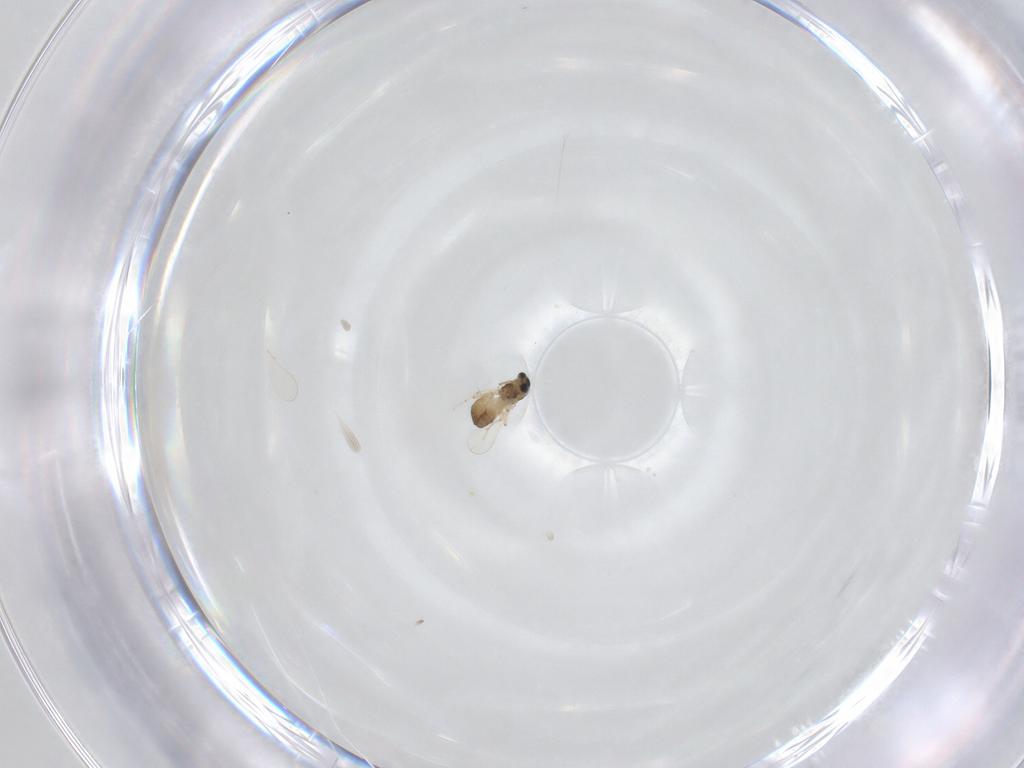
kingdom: Animalia
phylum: Arthropoda
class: Insecta
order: Diptera
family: Chironomidae
